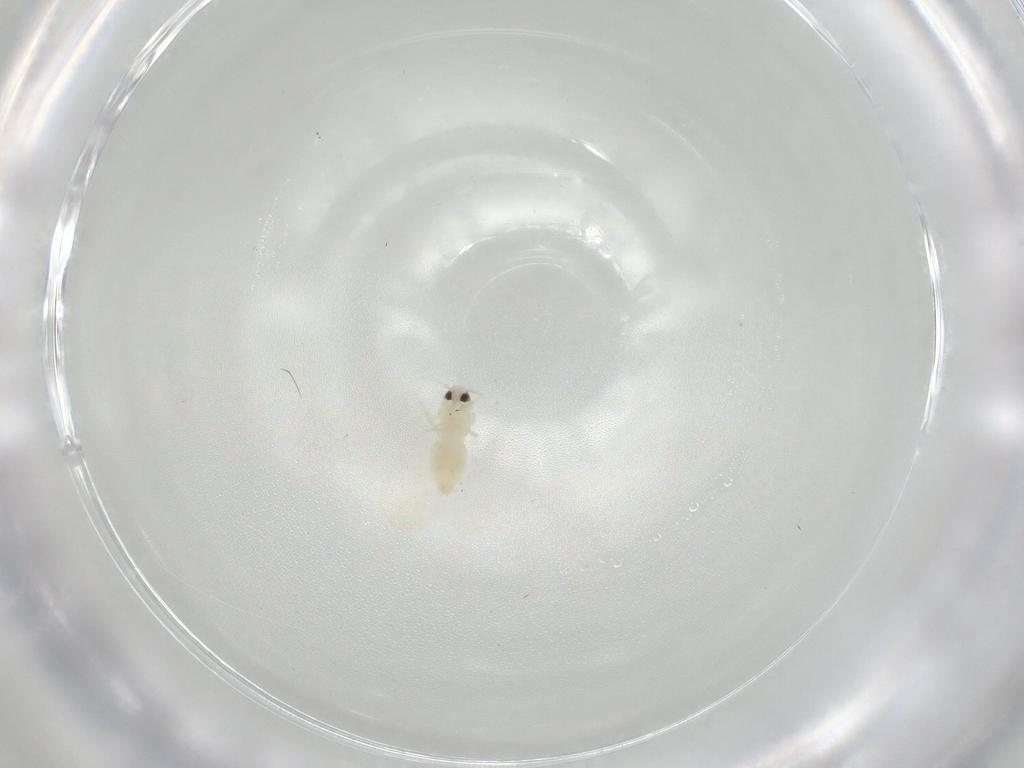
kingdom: Animalia
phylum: Arthropoda
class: Insecta
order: Hemiptera
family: Aleyrodidae
